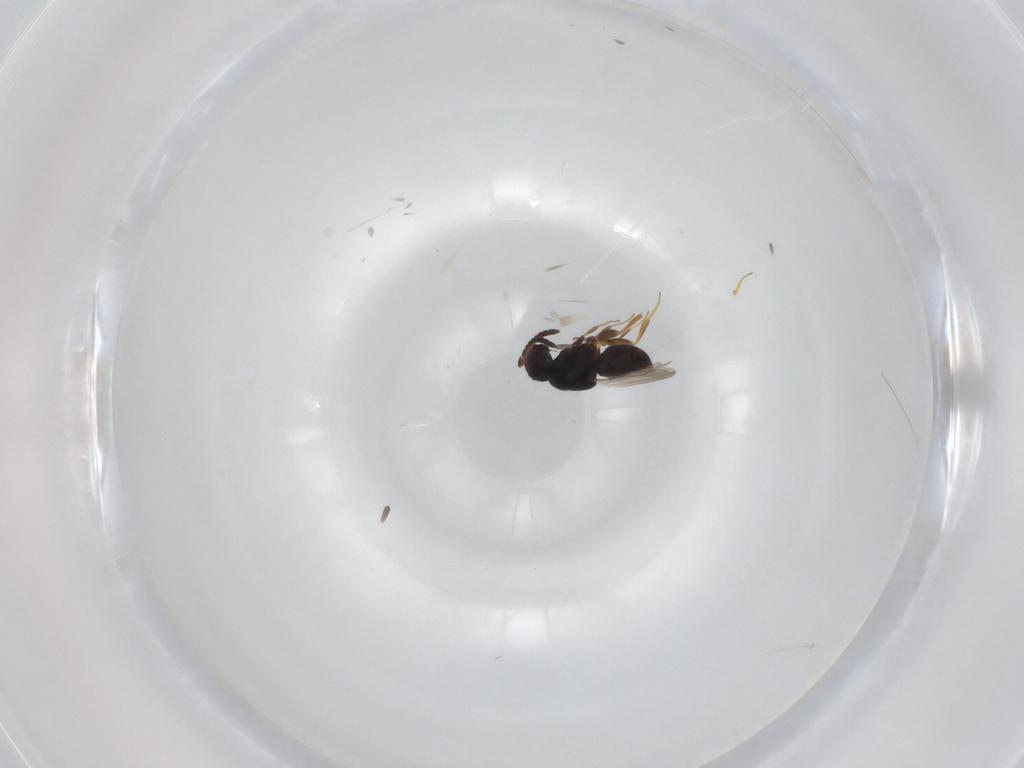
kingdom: Animalia
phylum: Arthropoda
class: Insecta
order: Hymenoptera
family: Ceraphronidae
